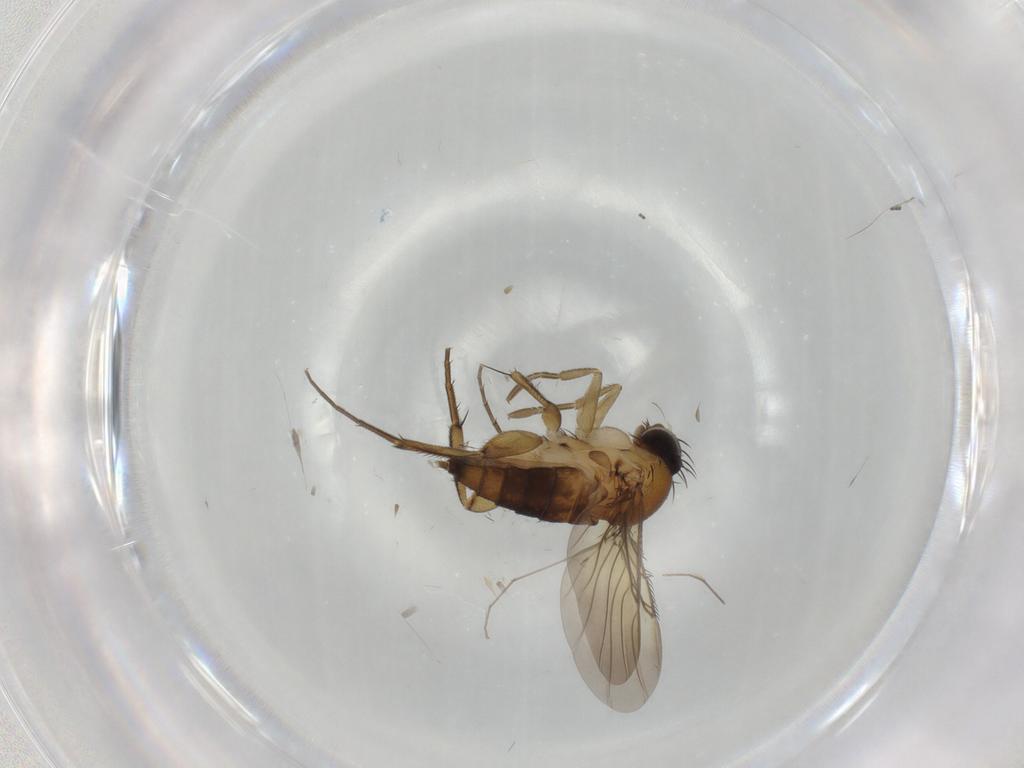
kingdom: Animalia
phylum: Arthropoda
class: Insecta
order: Diptera
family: Phoridae
